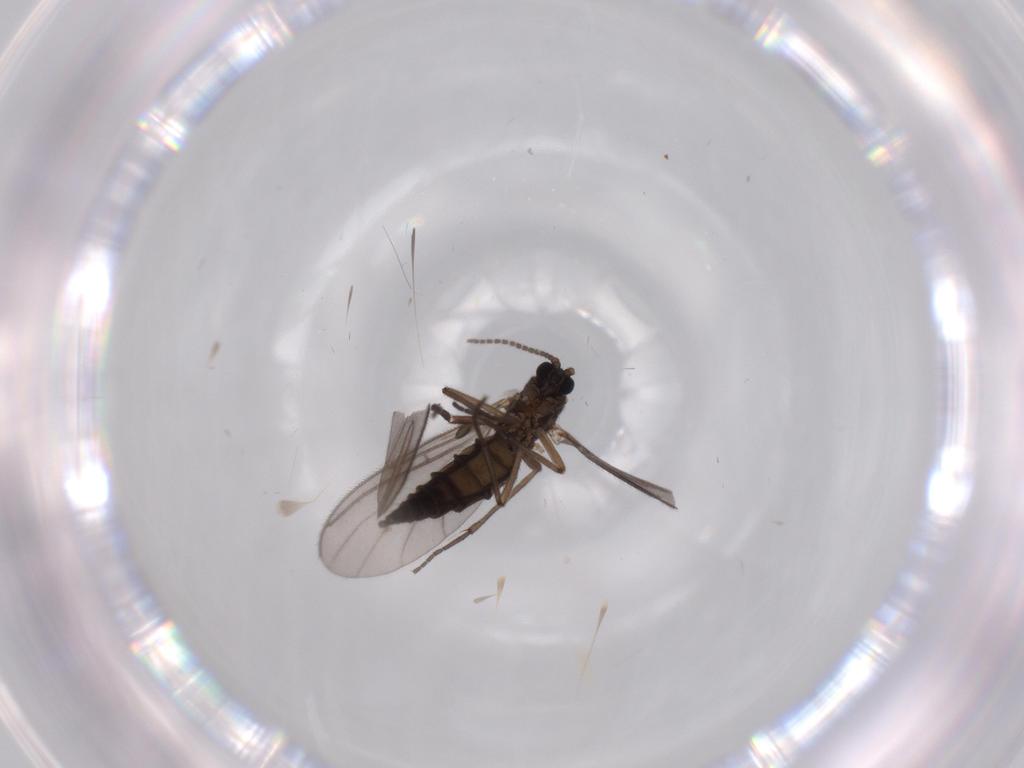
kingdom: Animalia
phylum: Arthropoda
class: Insecta
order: Diptera
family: Sciaridae
